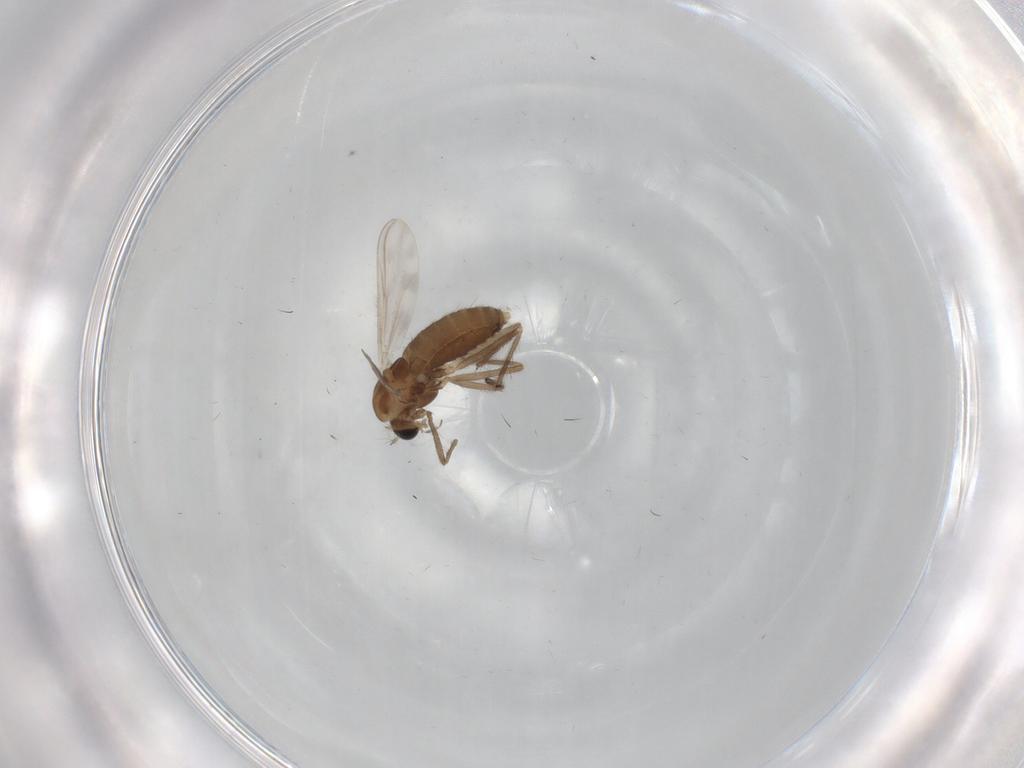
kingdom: Animalia
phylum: Arthropoda
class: Insecta
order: Diptera
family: Chironomidae
